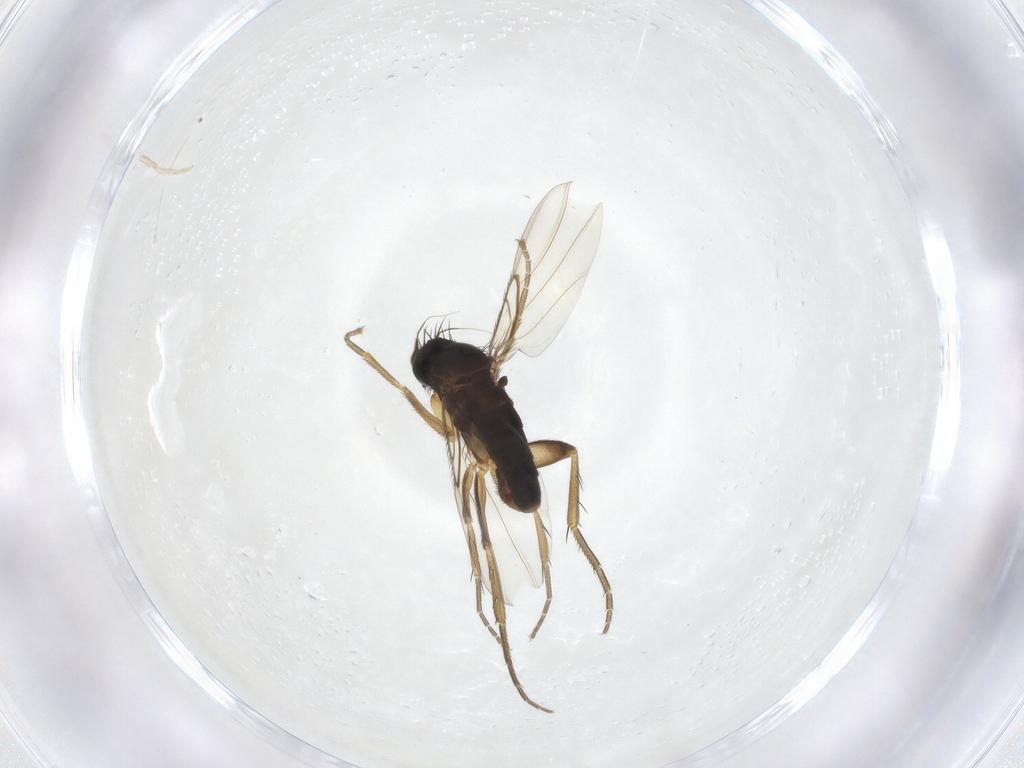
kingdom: Animalia
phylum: Arthropoda
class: Insecta
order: Diptera
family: Phoridae
